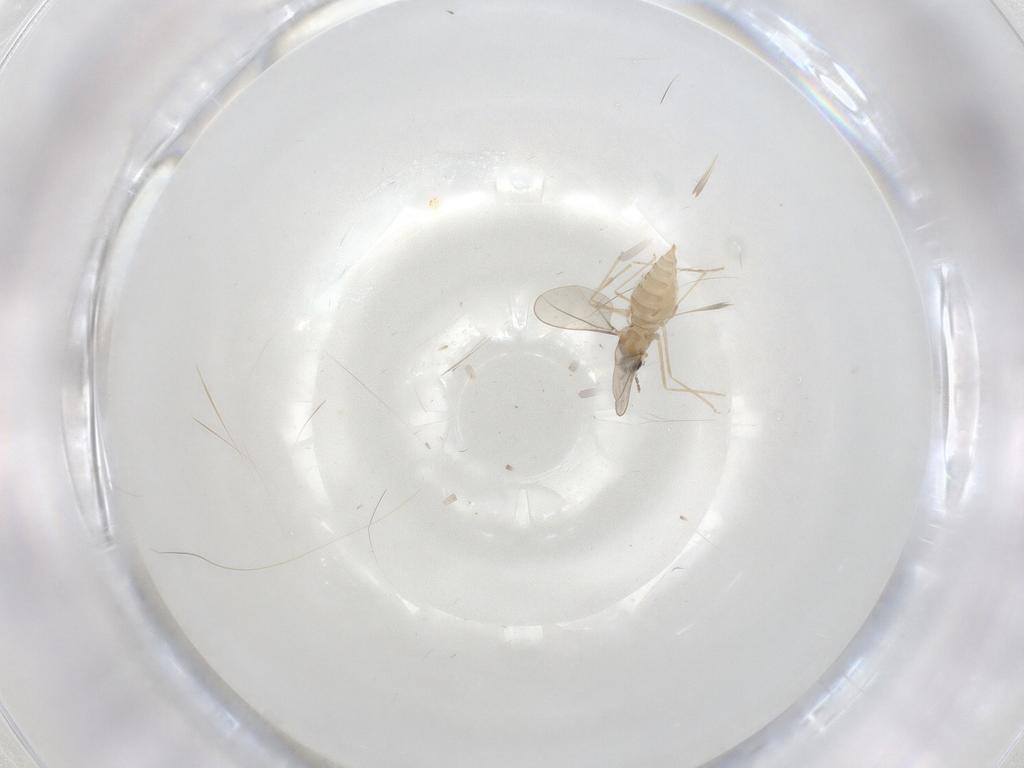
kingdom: Animalia
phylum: Arthropoda
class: Insecta
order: Diptera
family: Cecidomyiidae
